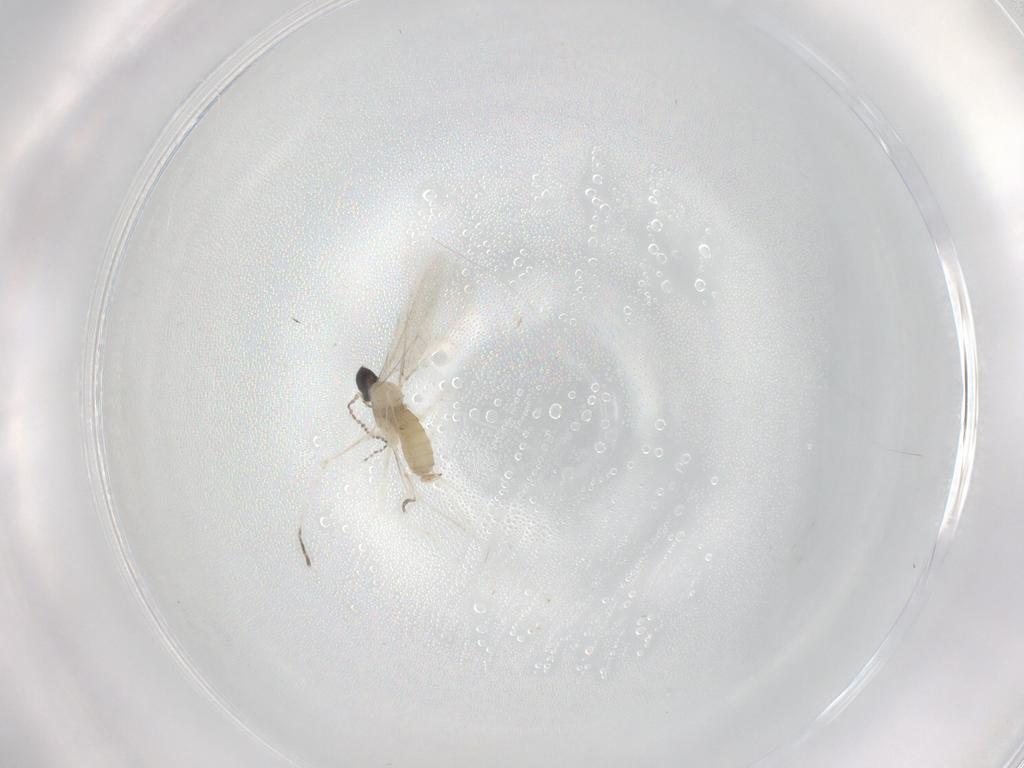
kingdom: Animalia
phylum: Arthropoda
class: Insecta
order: Diptera
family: Cecidomyiidae
